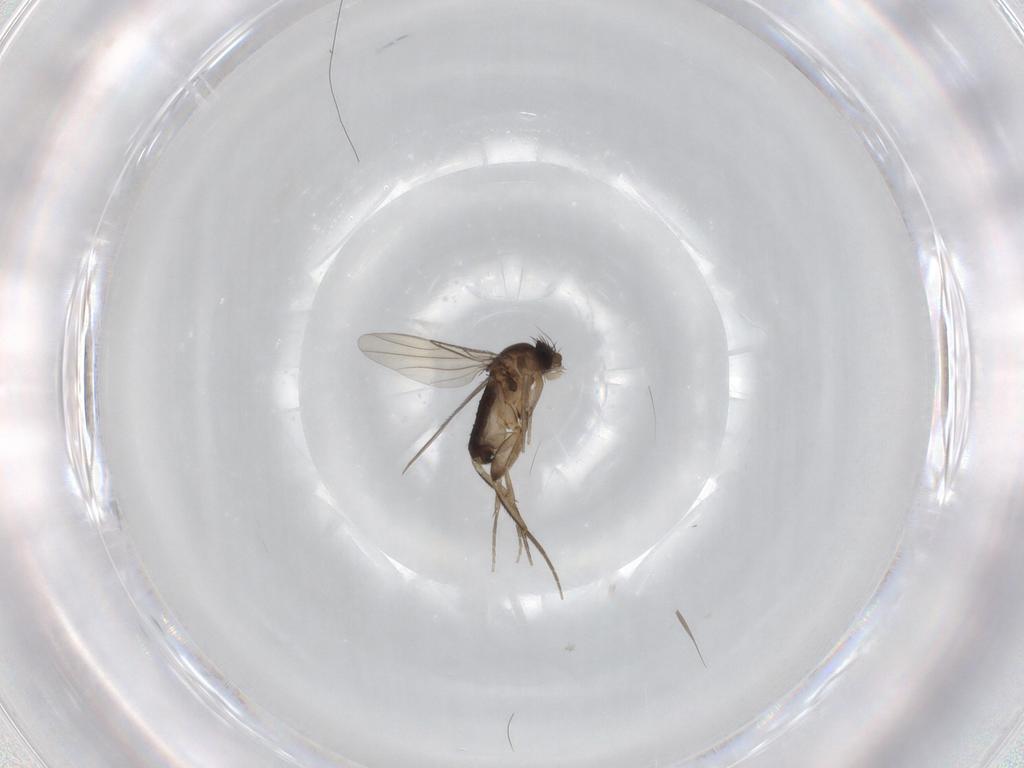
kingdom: Animalia
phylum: Arthropoda
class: Insecta
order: Diptera
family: Phoridae
